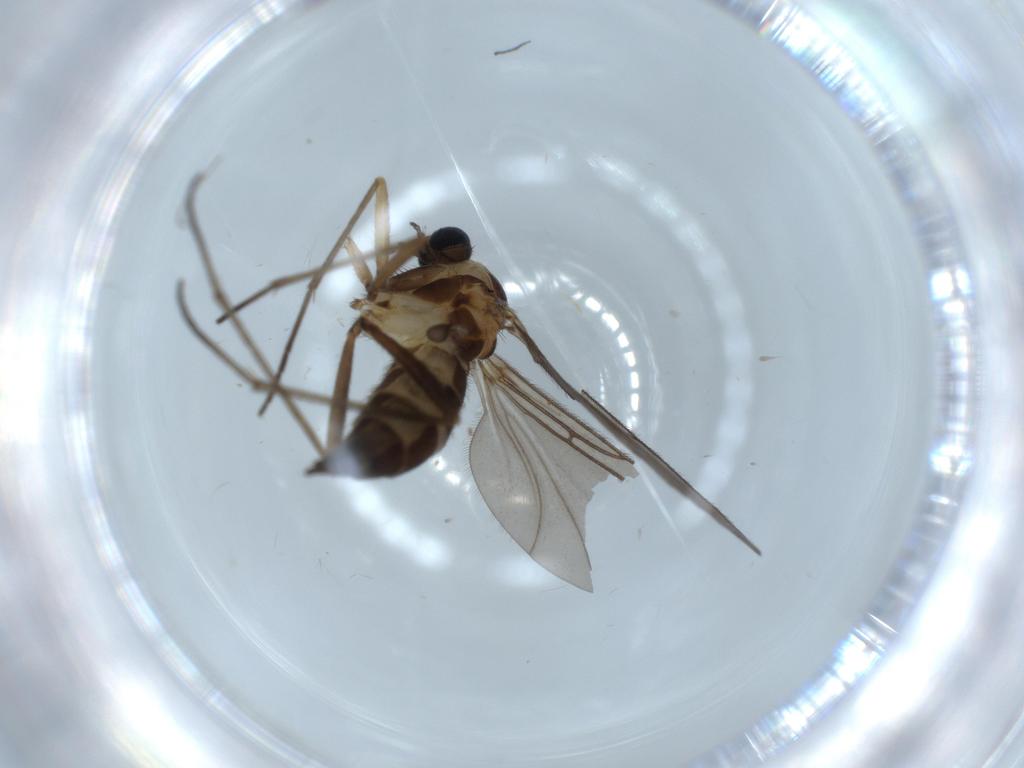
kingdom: Animalia
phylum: Arthropoda
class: Insecta
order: Diptera
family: Sciaridae
